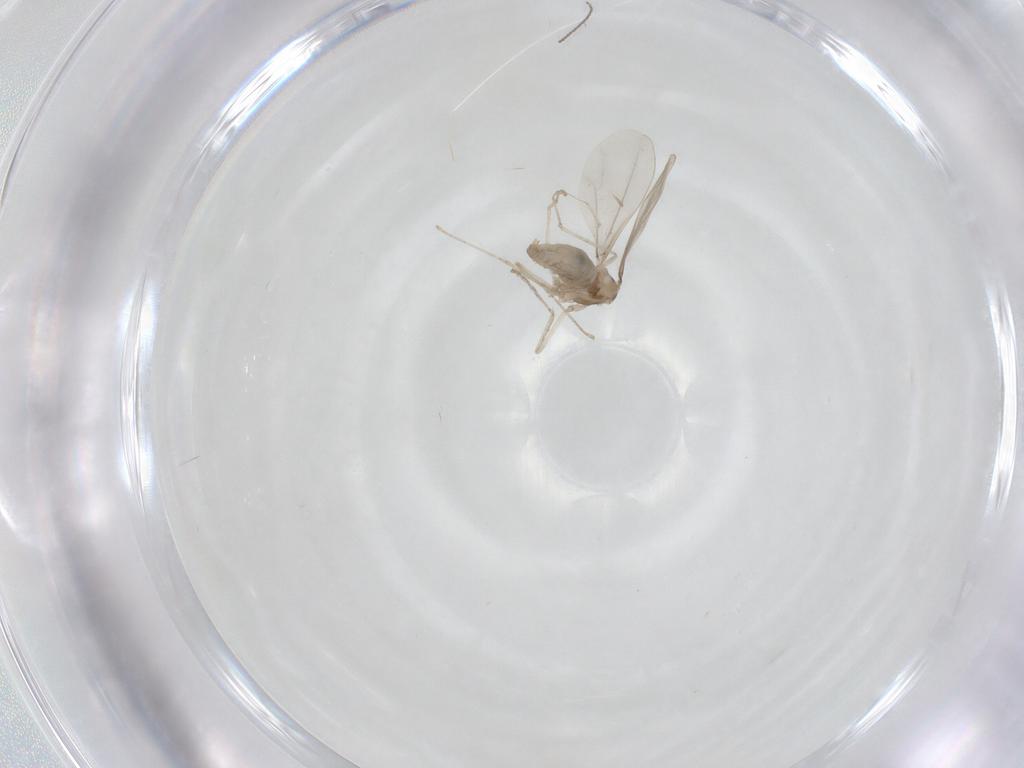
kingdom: Animalia
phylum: Arthropoda
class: Insecta
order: Diptera
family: Cecidomyiidae
